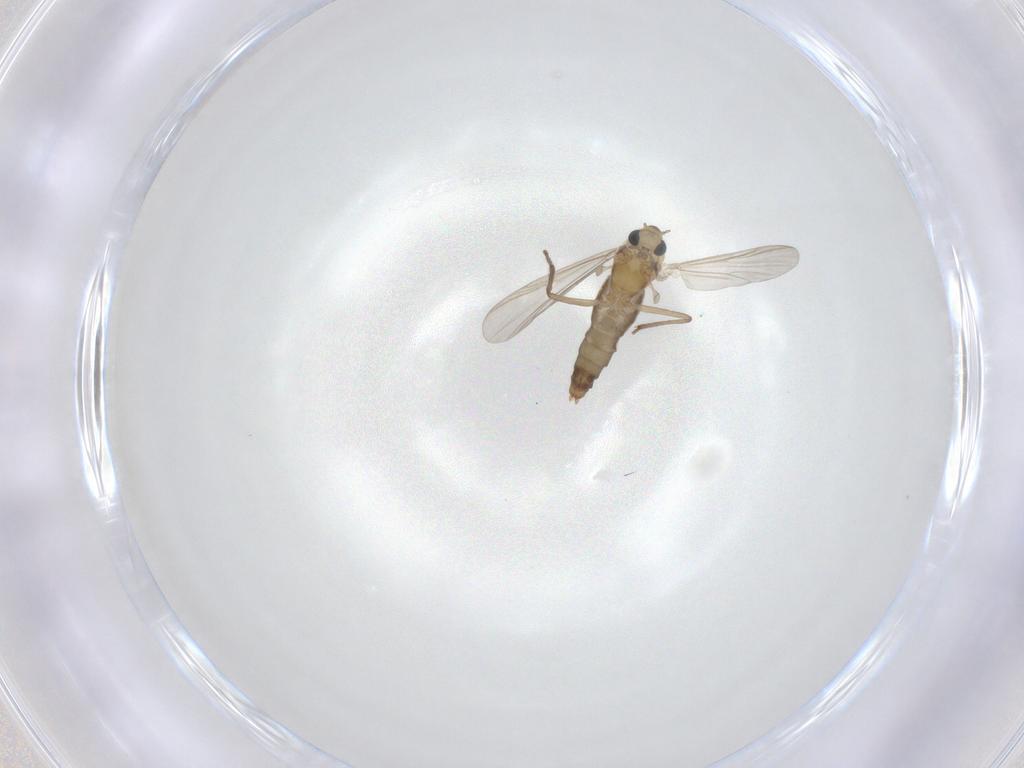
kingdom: Animalia
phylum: Arthropoda
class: Insecta
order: Diptera
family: Chironomidae
